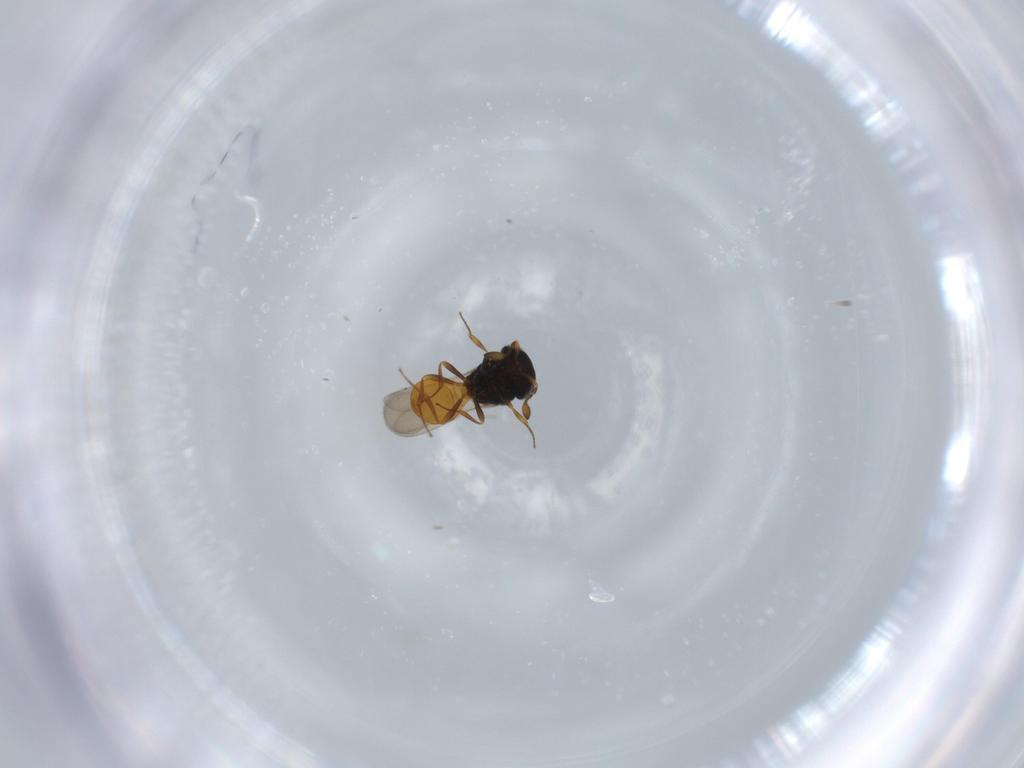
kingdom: Animalia
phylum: Arthropoda
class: Insecta
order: Hymenoptera
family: Scelionidae
